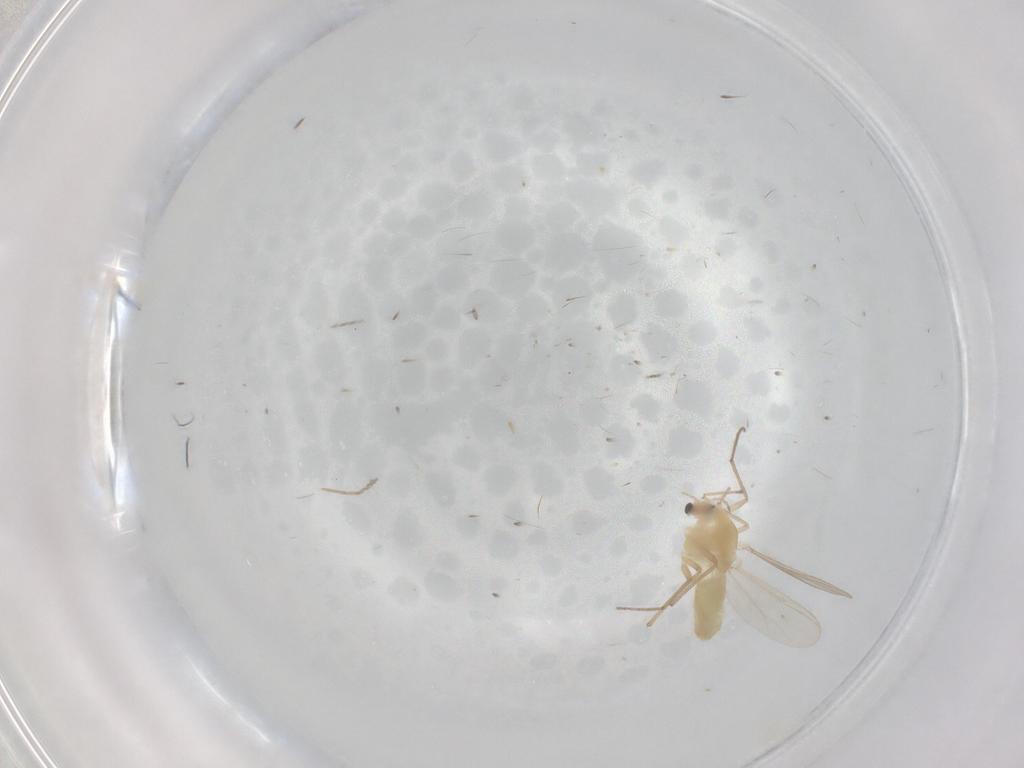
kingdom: Animalia
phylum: Arthropoda
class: Insecta
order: Diptera
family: Chironomidae
